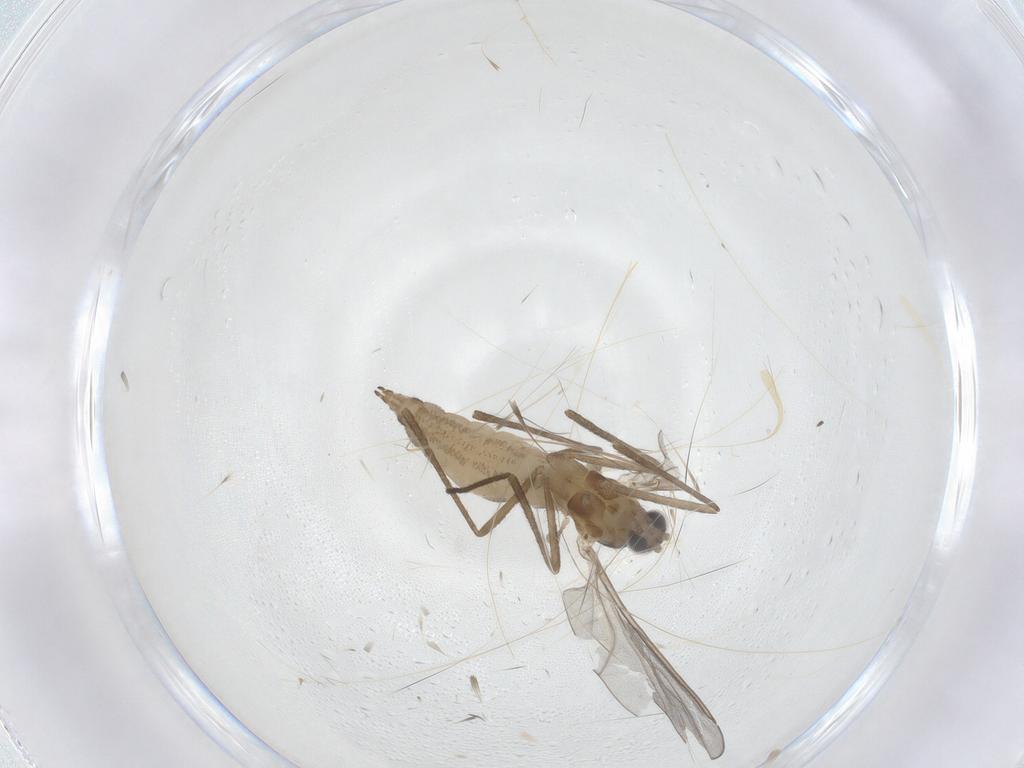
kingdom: Animalia
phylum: Arthropoda
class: Insecta
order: Diptera
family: Cecidomyiidae
